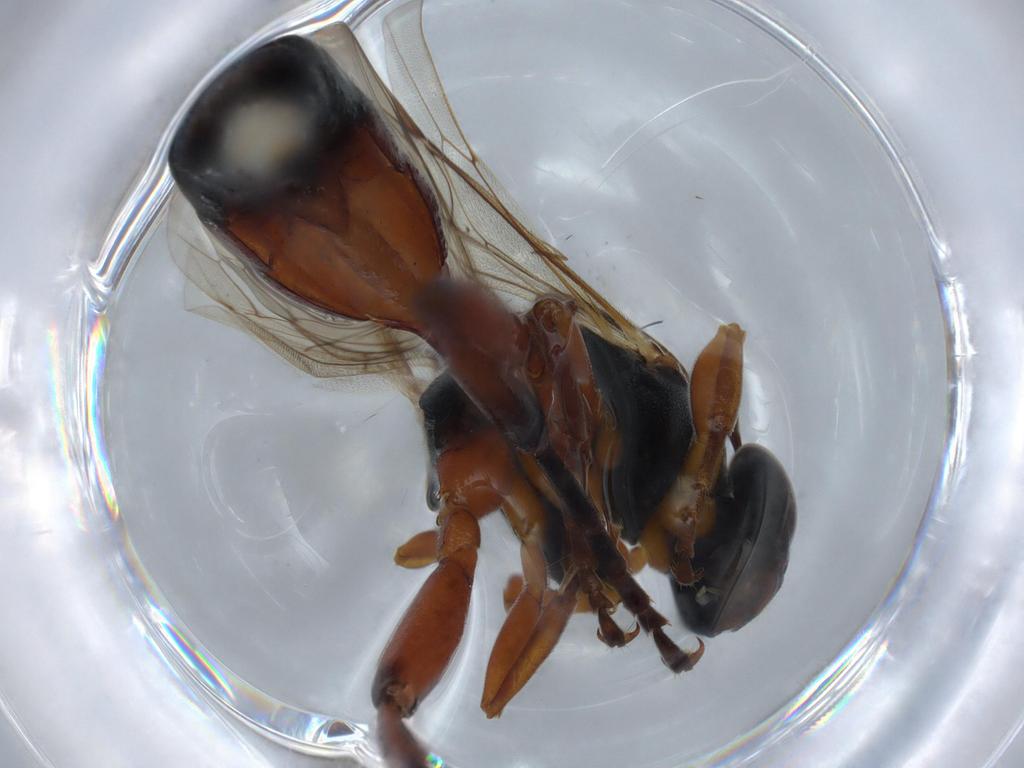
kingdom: Animalia
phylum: Arthropoda
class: Insecta
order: Hymenoptera
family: Ichneumonidae
